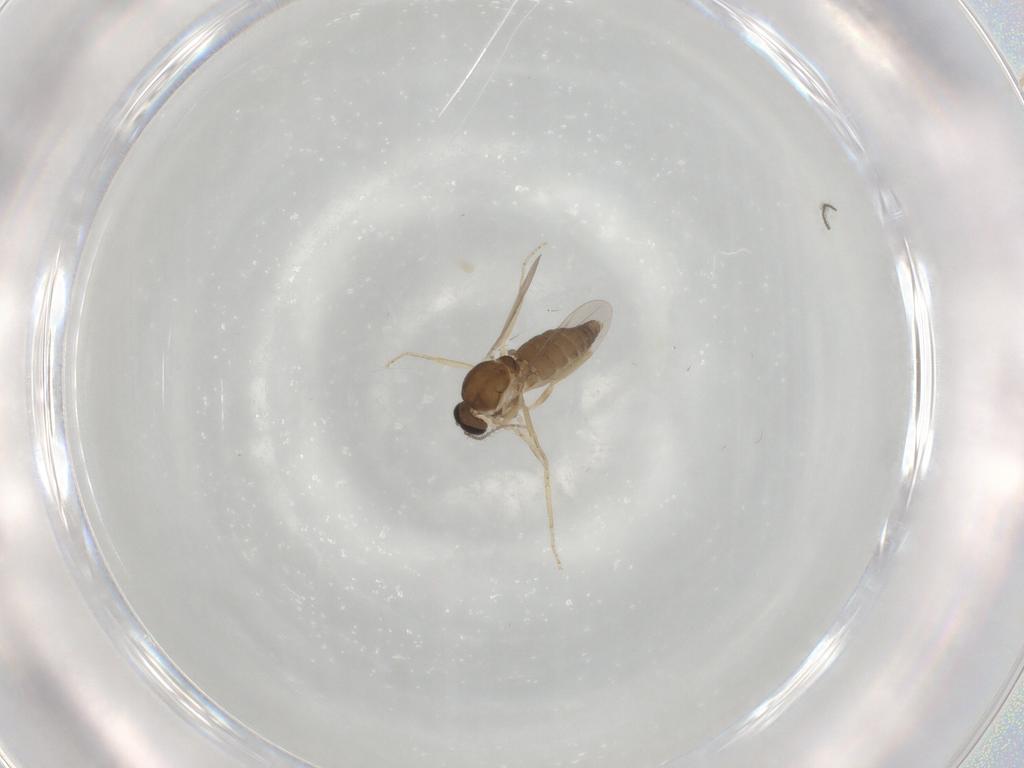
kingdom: Animalia
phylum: Arthropoda
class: Insecta
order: Diptera
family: Ceratopogonidae
